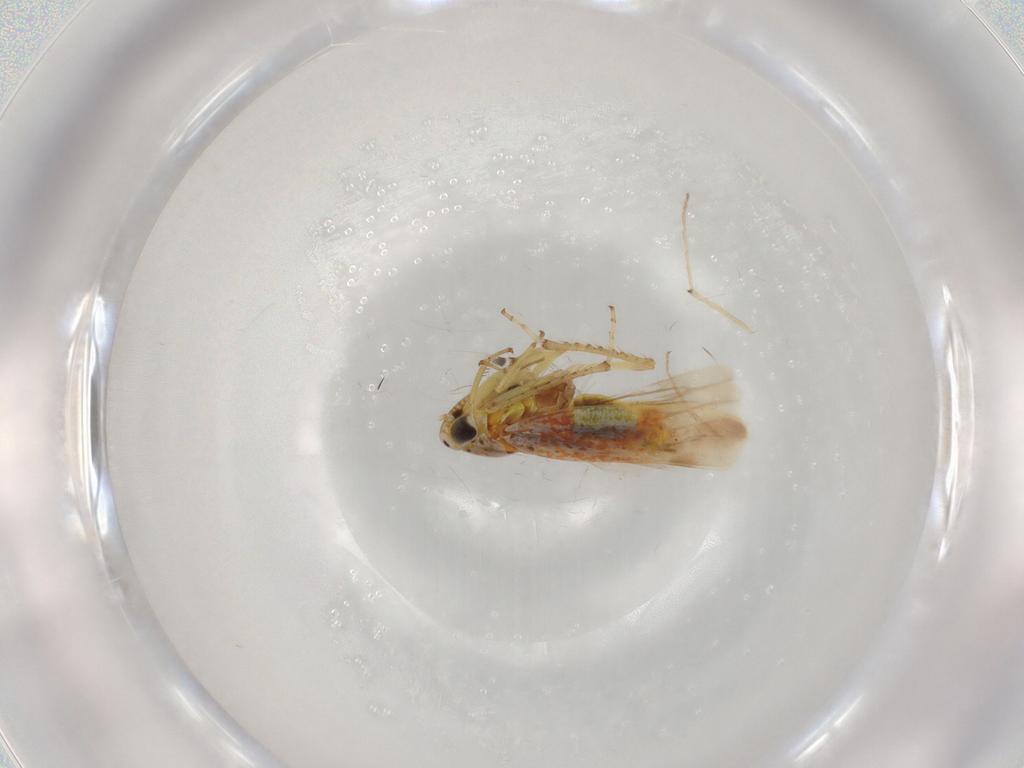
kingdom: Animalia
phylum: Arthropoda
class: Insecta
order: Hemiptera
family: Cicadellidae
